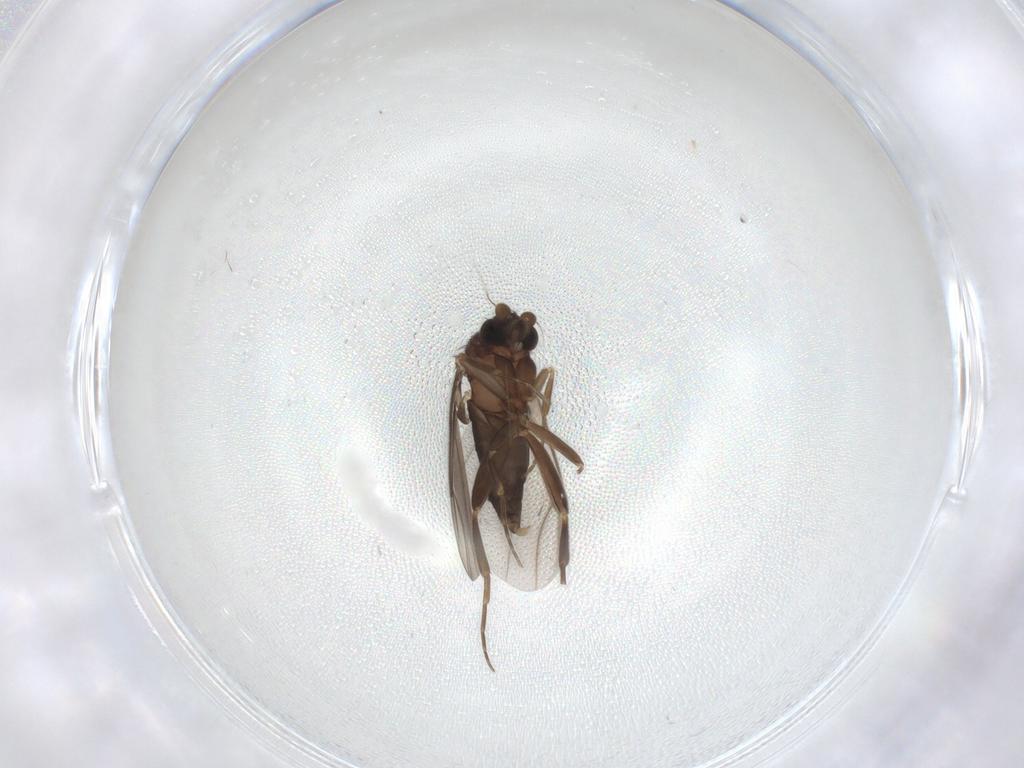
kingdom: Animalia
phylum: Arthropoda
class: Insecta
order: Diptera
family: Phoridae
